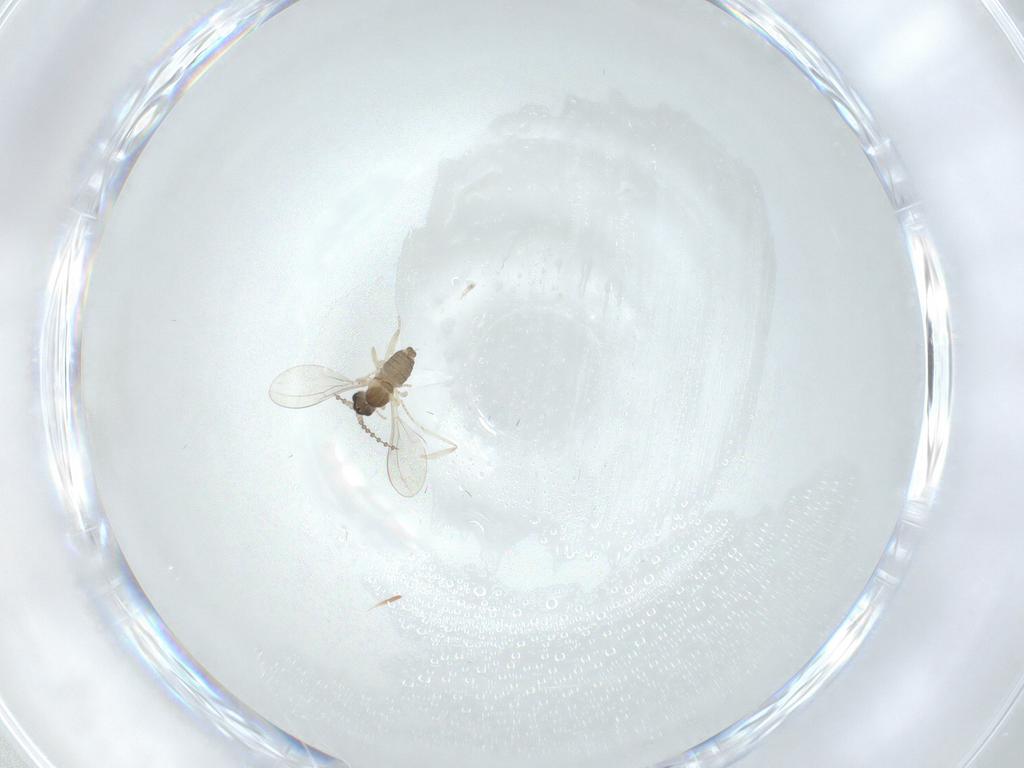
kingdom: Animalia
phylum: Arthropoda
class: Insecta
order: Diptera
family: Cecidomyiidae
